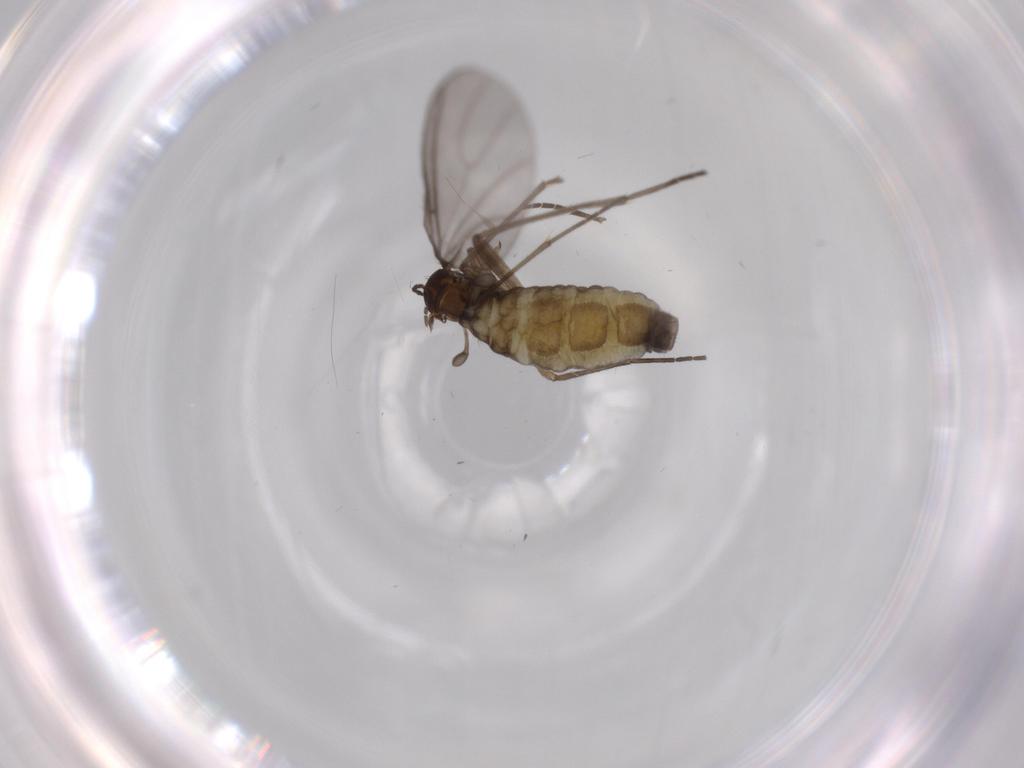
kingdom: Animalia
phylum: Arthropoda
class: Insecta
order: Diptera
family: Sciaridae
